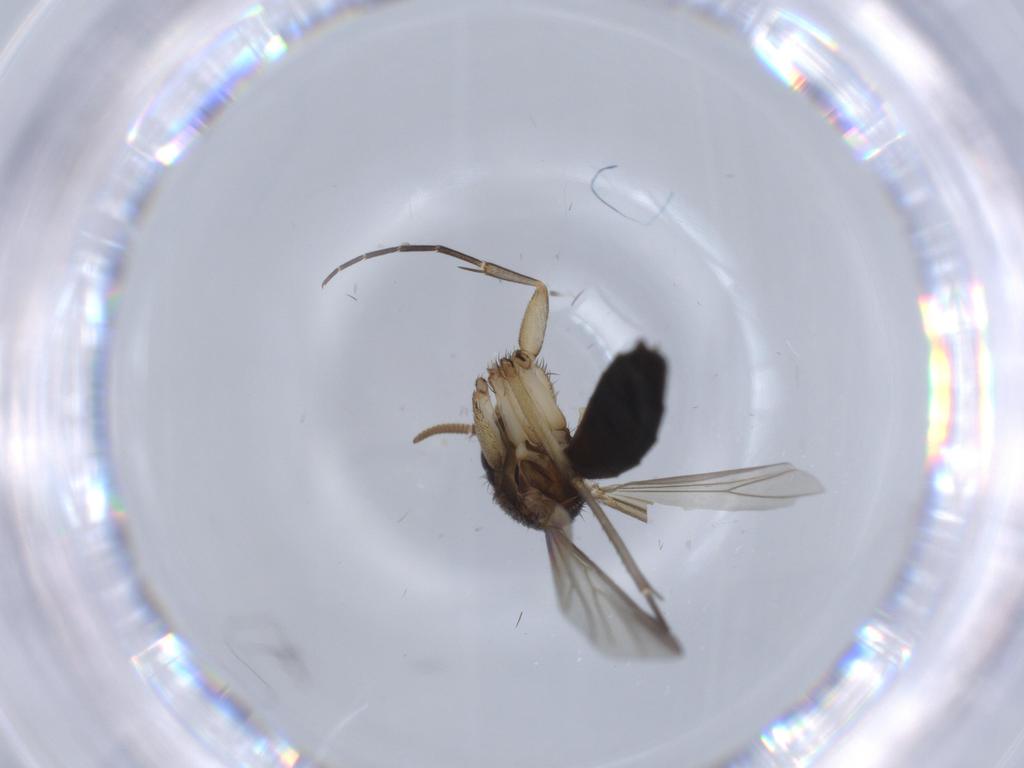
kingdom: Animalia
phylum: Arthropoda
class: Insecta
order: Diptera
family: Mycetophilidae
